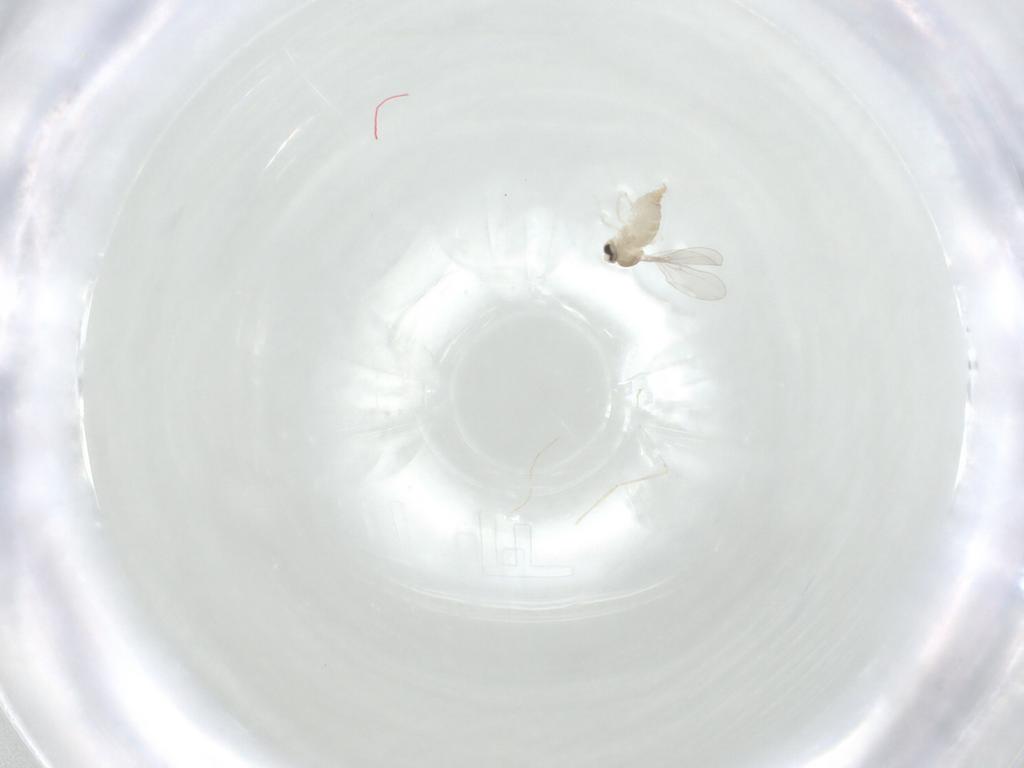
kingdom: Animalia
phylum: Arthropoda
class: Insecta
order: Diptera
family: Cecidomyiidae
